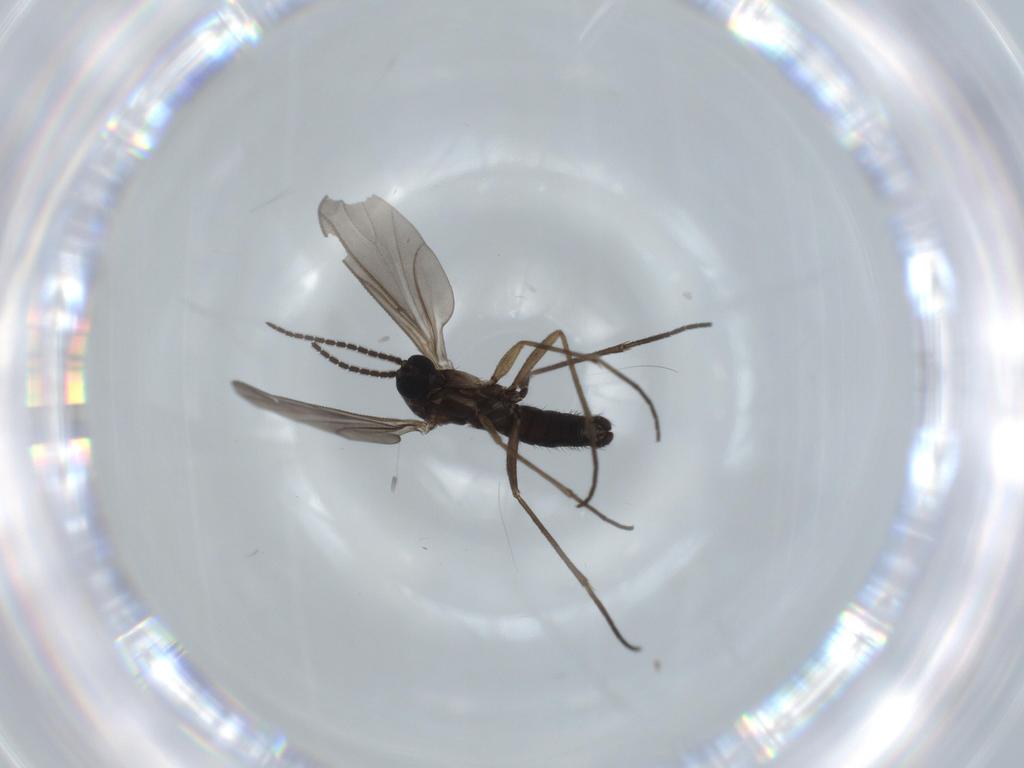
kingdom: Animalia
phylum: Arthropoda
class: Insecta
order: Diptera
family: Sciaridae
